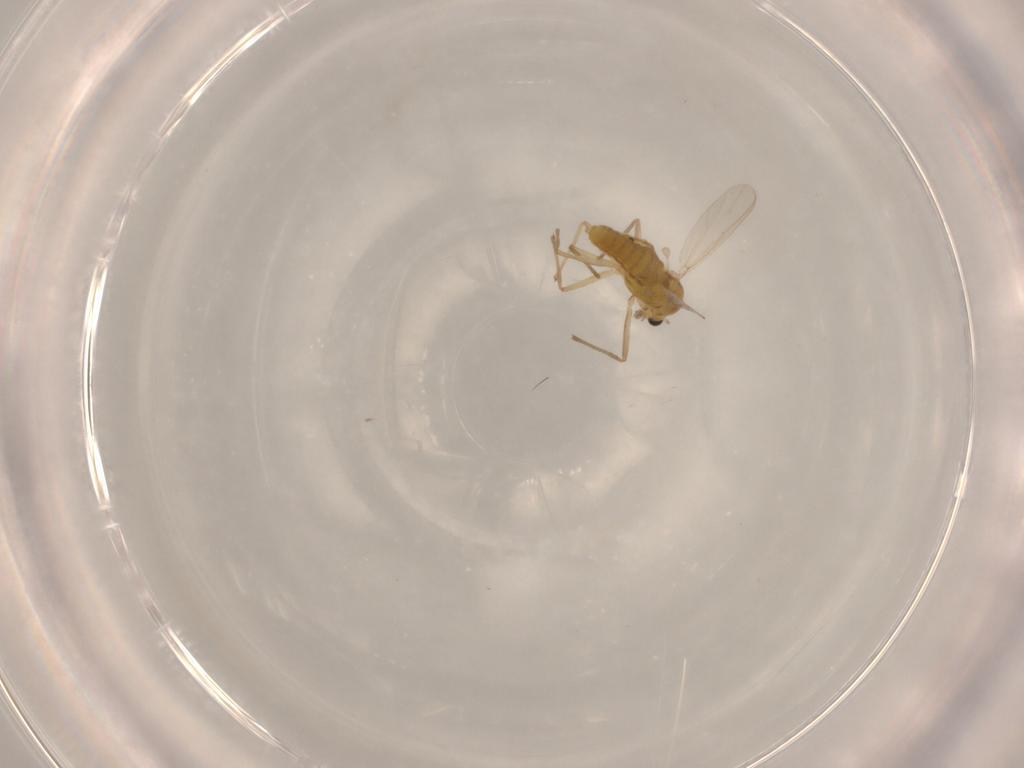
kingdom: Animalia
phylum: Arthropoda
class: Insecta
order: Diptera
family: Chironomidae
